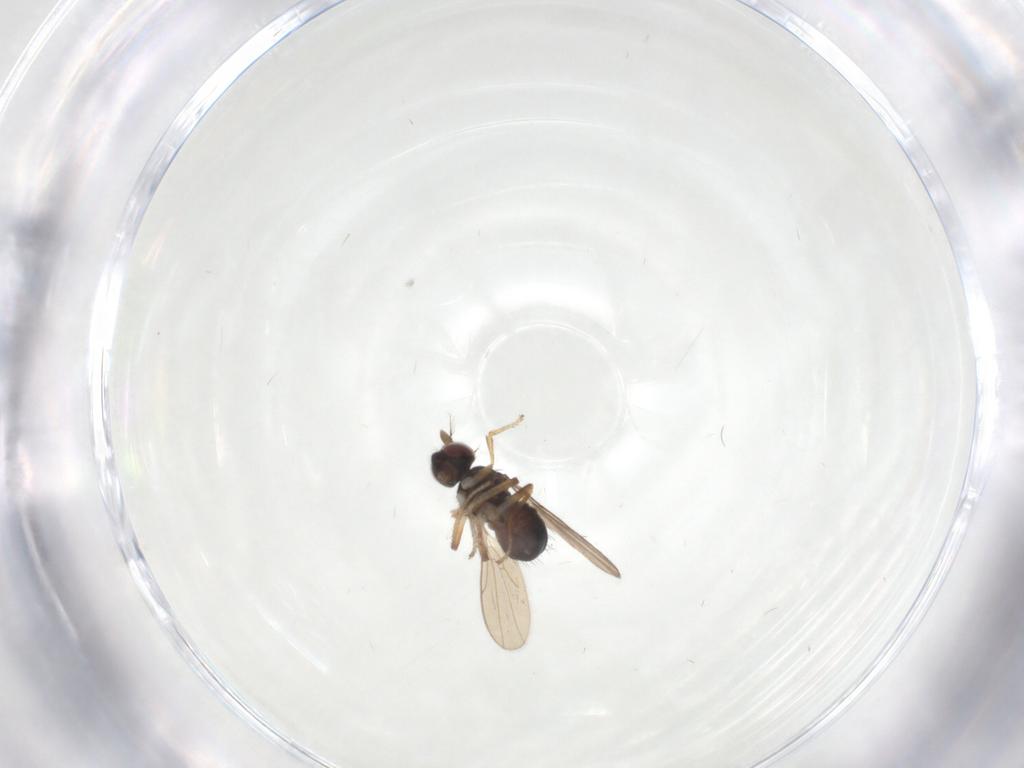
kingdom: Animalia
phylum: Arthropoda
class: Insecta
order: Diptera
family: Ephydridae
